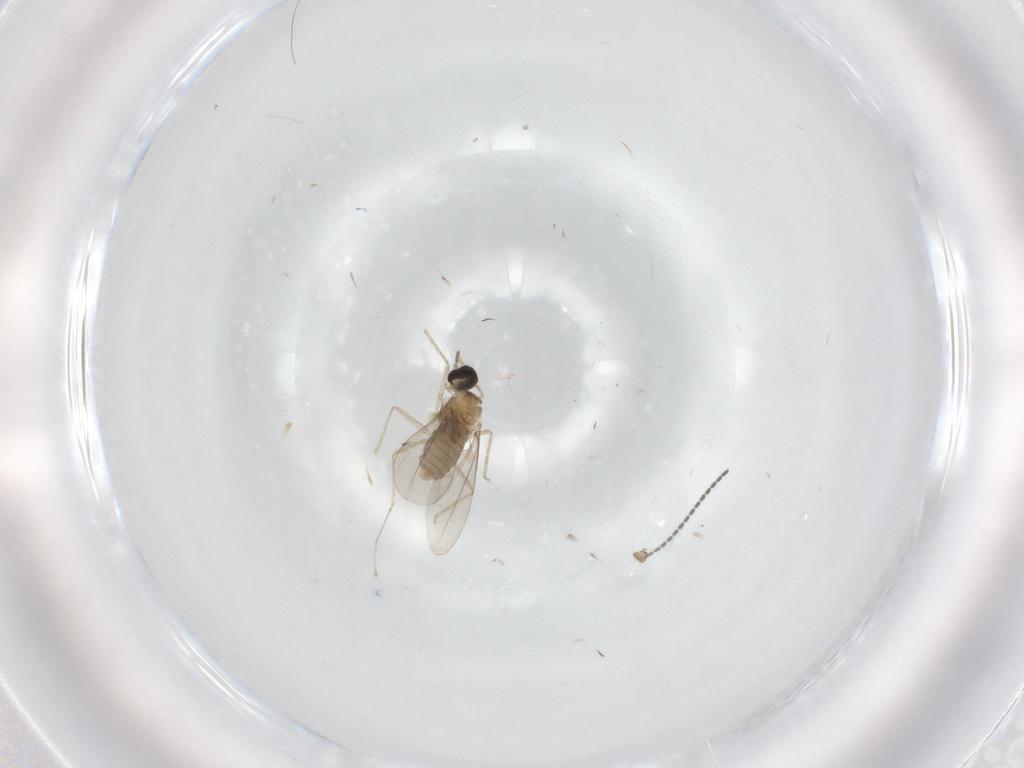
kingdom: Animalia
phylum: Arthropoda
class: Insecta
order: Diptera
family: Cecidomyiidae
